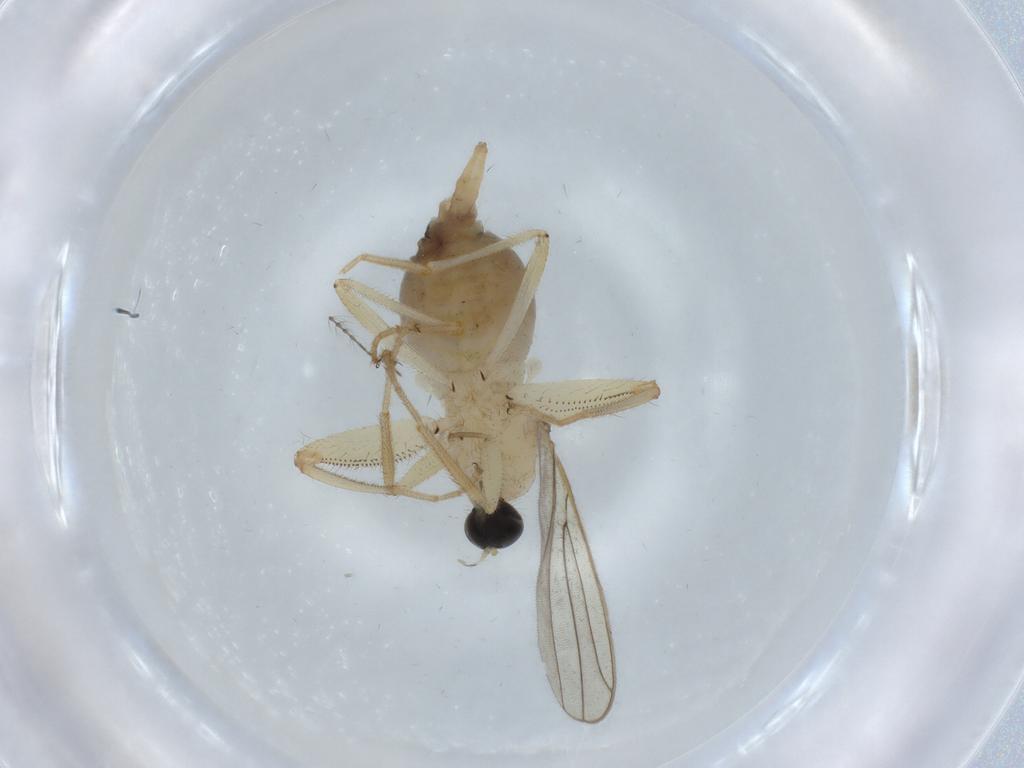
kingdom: Animalia
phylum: Arthropoda
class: Insecta
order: Diptera
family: Hybotidae
